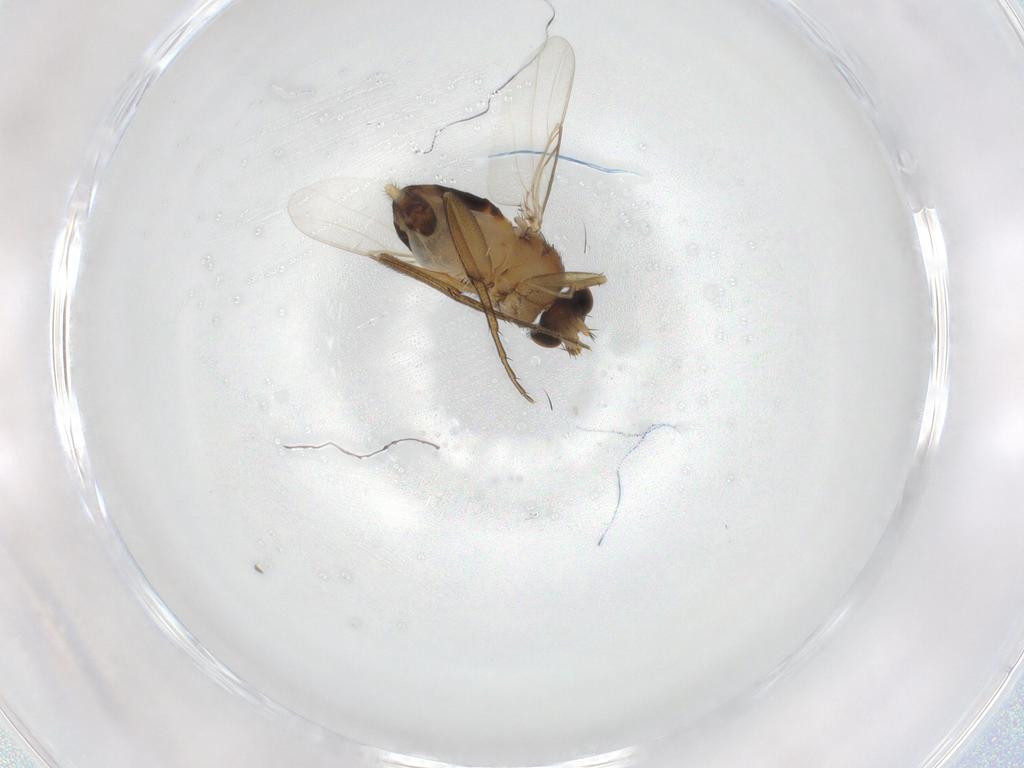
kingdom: Animalia
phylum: Arthropoda
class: Insecta
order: Diptera
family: Phoridae
